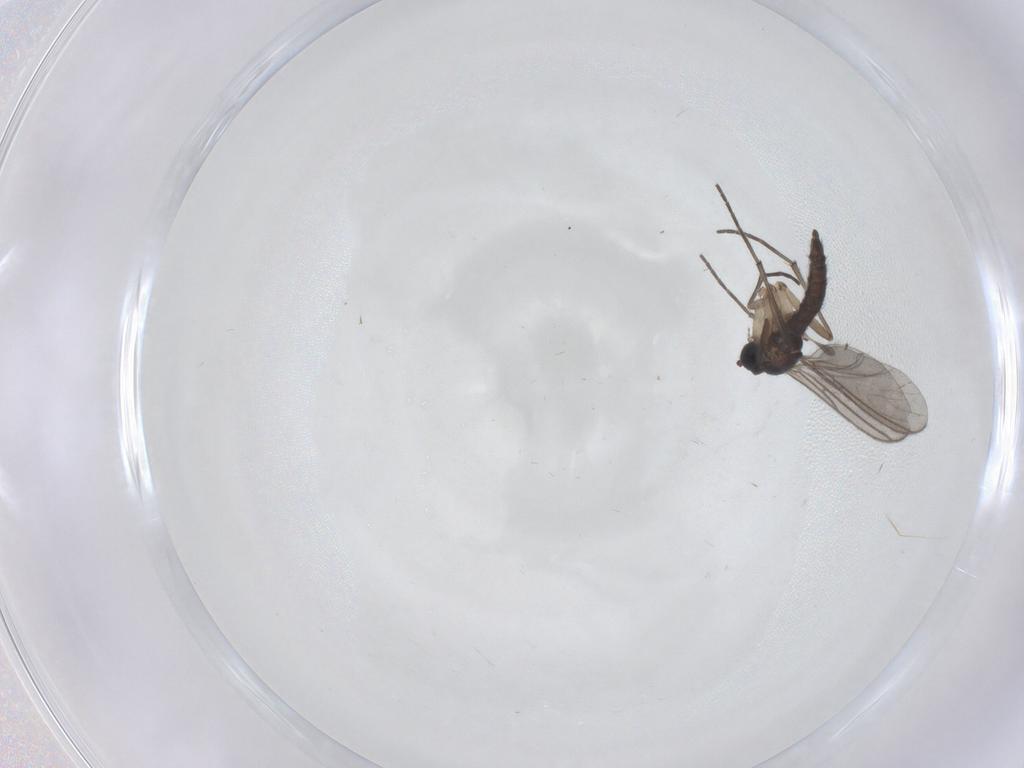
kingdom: Animalia
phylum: Arthropoda
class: Insecta
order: Diptera
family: Sciaridae
